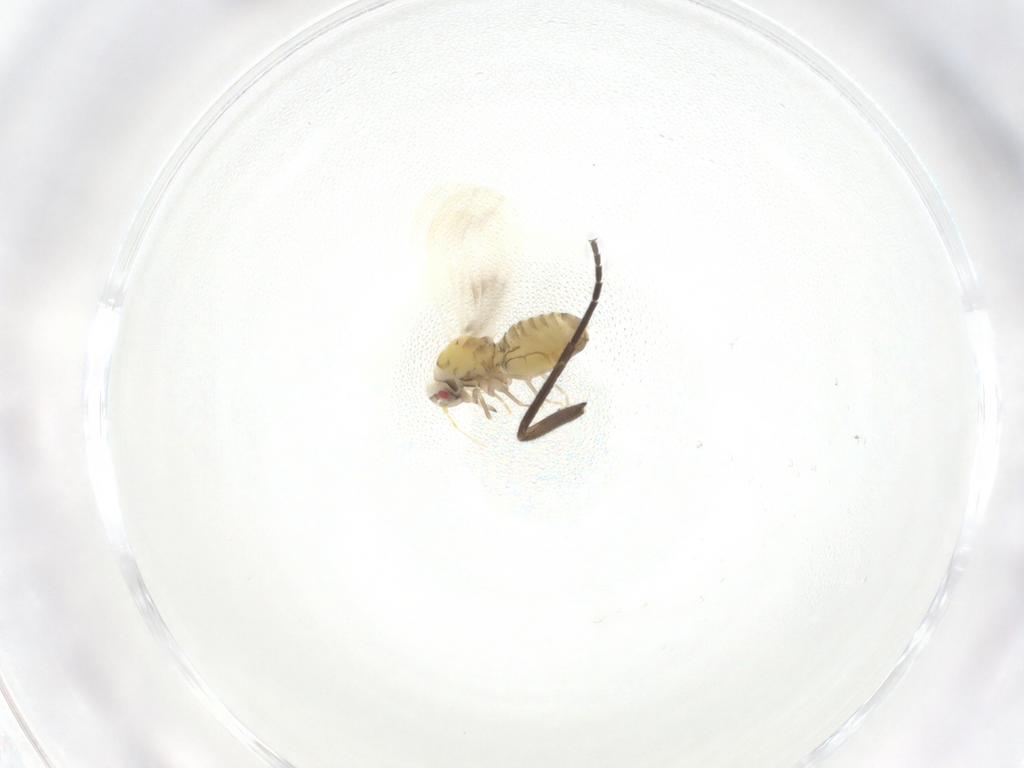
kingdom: Animalia
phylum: Arthropoda
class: Insecta
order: Hemiptera
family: Aleyrodidae
